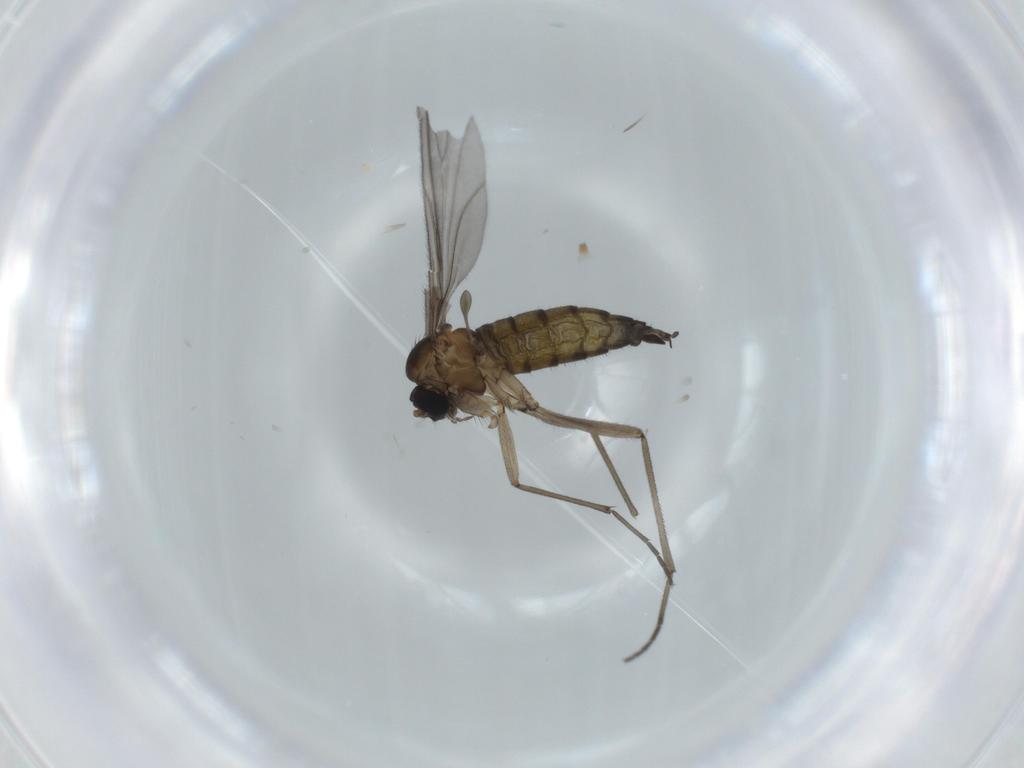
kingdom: Animalia
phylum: Arthropoda
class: Insecta
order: Diptera
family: Sciaridae
